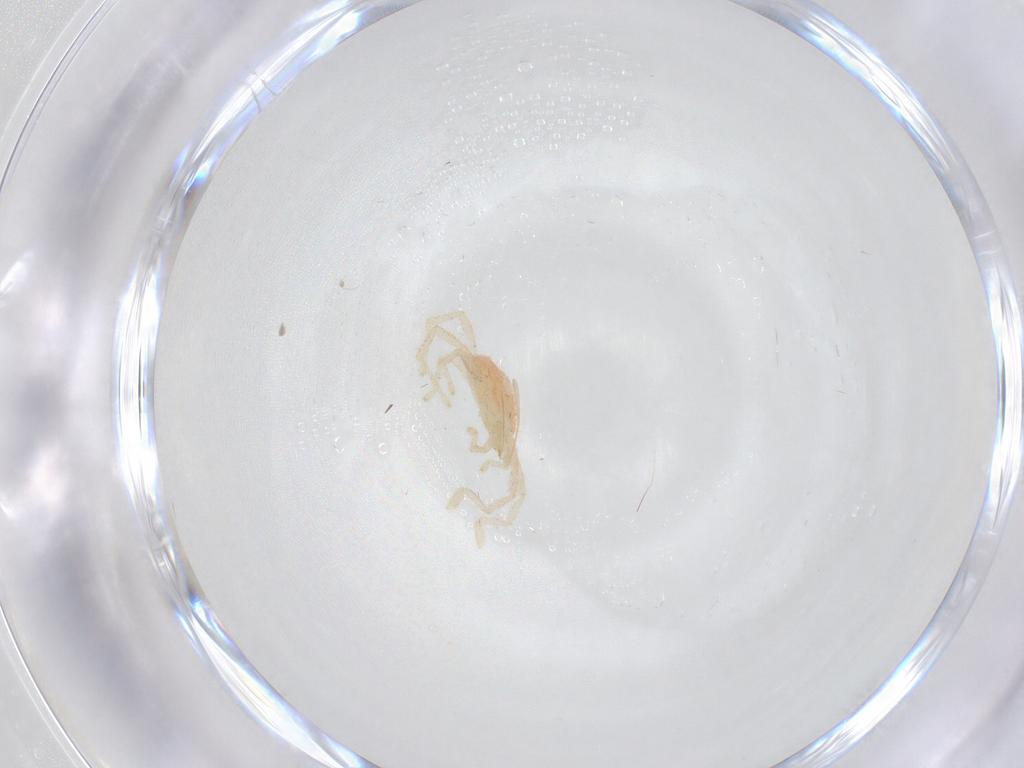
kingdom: Animalia
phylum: Arthropoda
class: Arachnida
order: Trombidiformes
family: Erythraeidae
